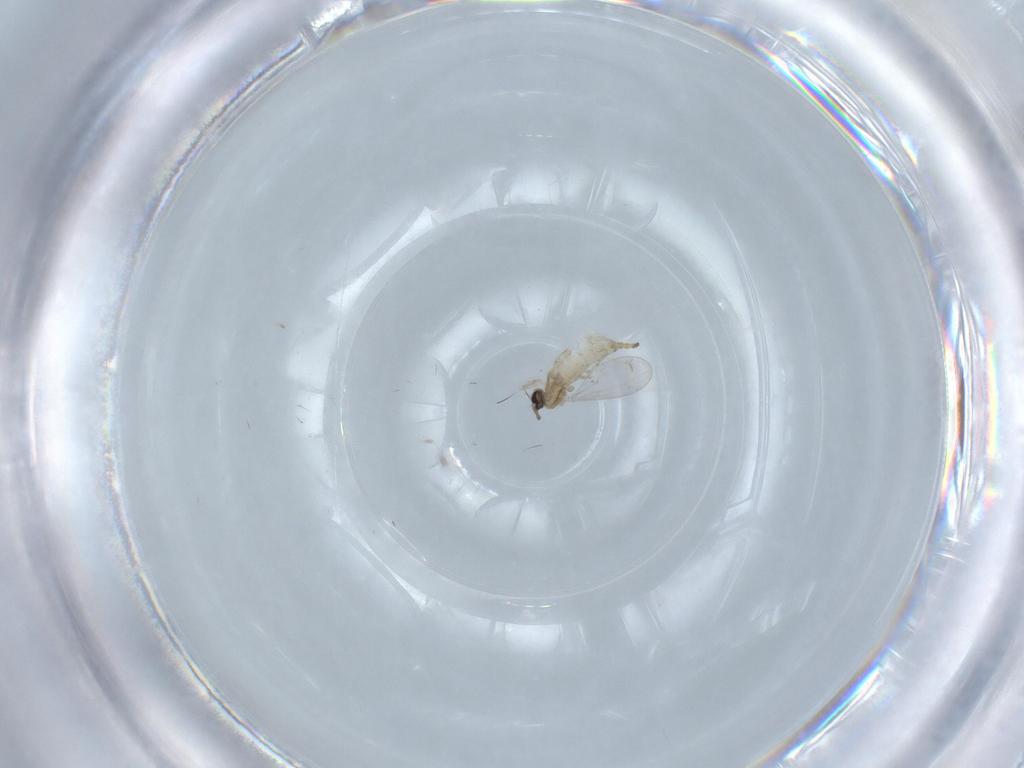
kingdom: Animalia
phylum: Arthropoda
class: Insecta
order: Diptera
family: Cecidomyiidae
